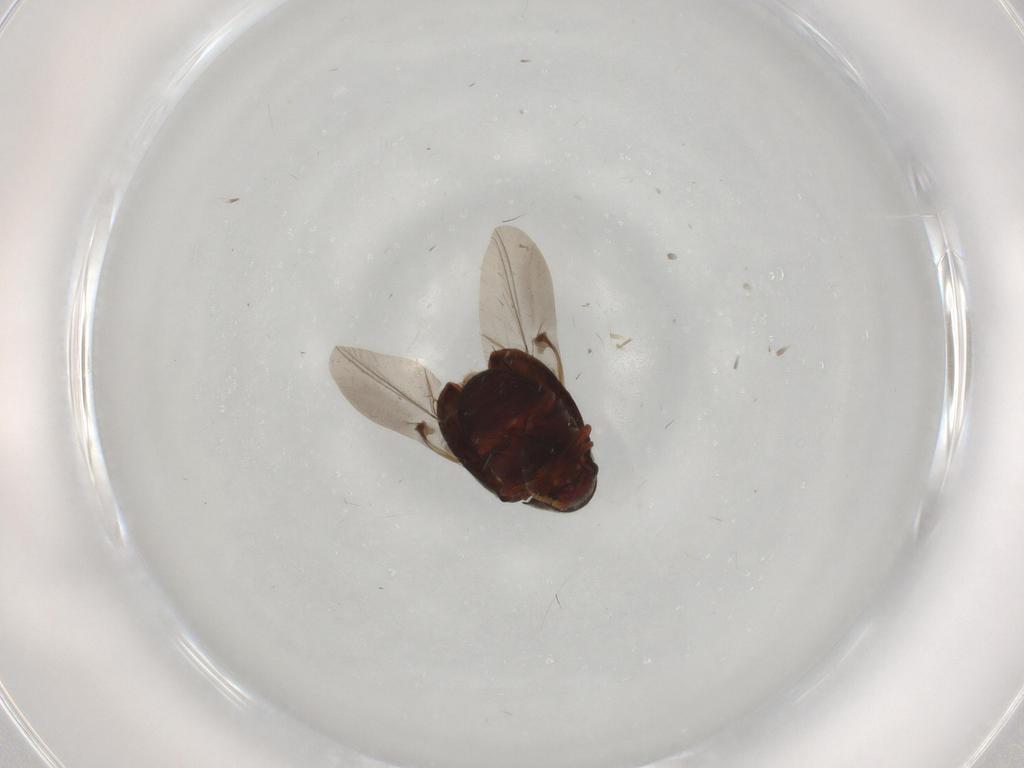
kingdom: Animalia
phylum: Arthropoda
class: Insecta
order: Coleoptera
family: Ptinidae
